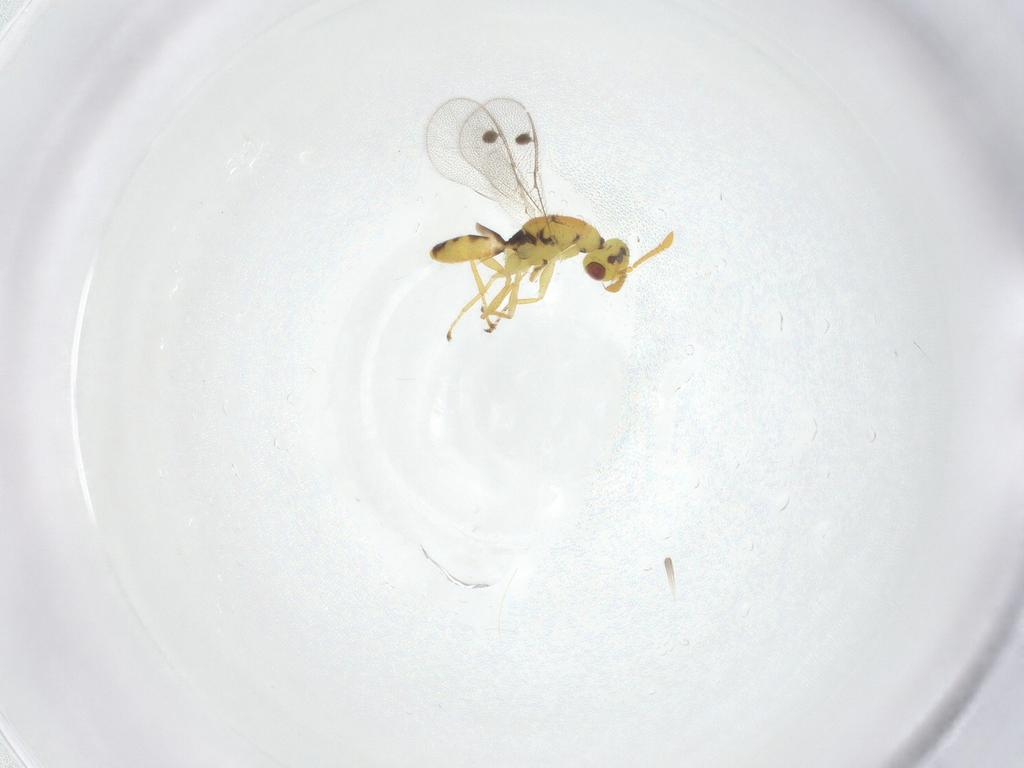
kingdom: Animalia
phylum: Arthropoda
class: Insecta
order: Hymenoptera
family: Megastigmidae
